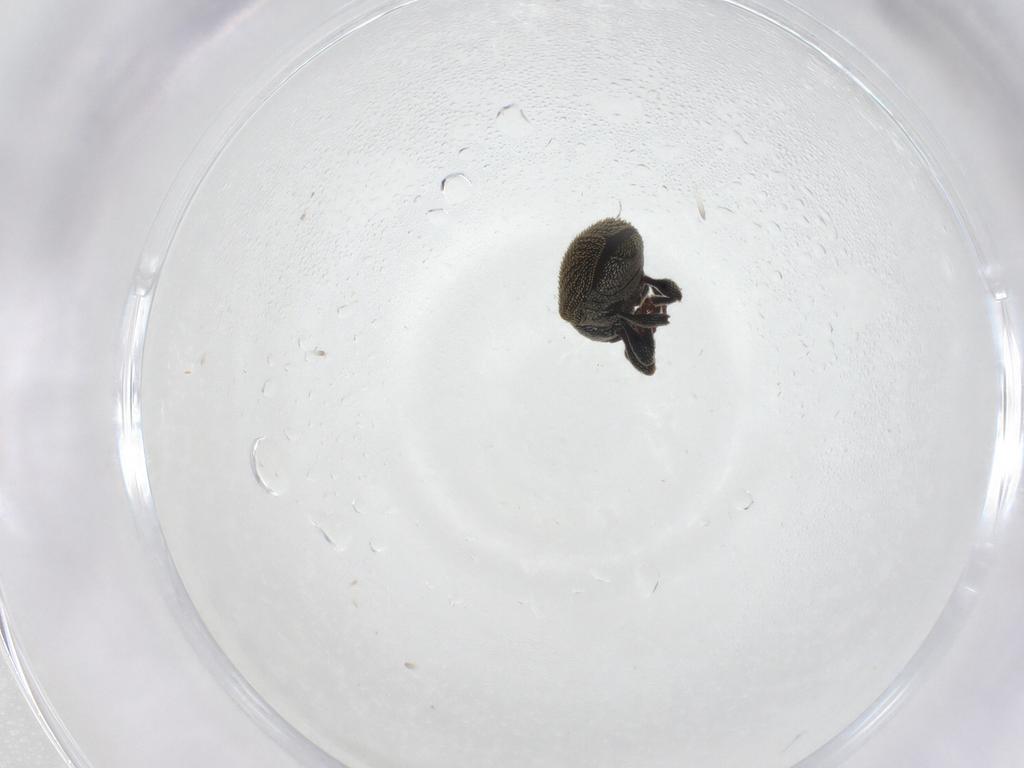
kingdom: Animalia
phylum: Arthropoda
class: Insecta
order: Coleoptera
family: Curculionidae
